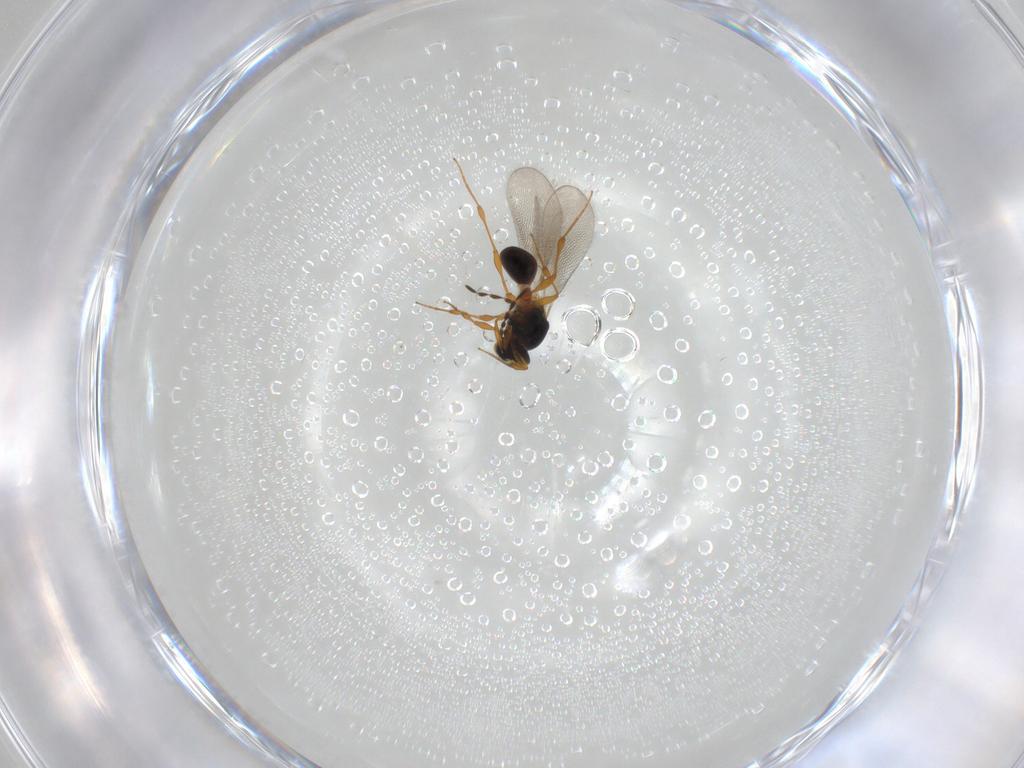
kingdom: Animalia
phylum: Arthropoda
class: Insecta
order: Hymenoptera
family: Platygastridae
